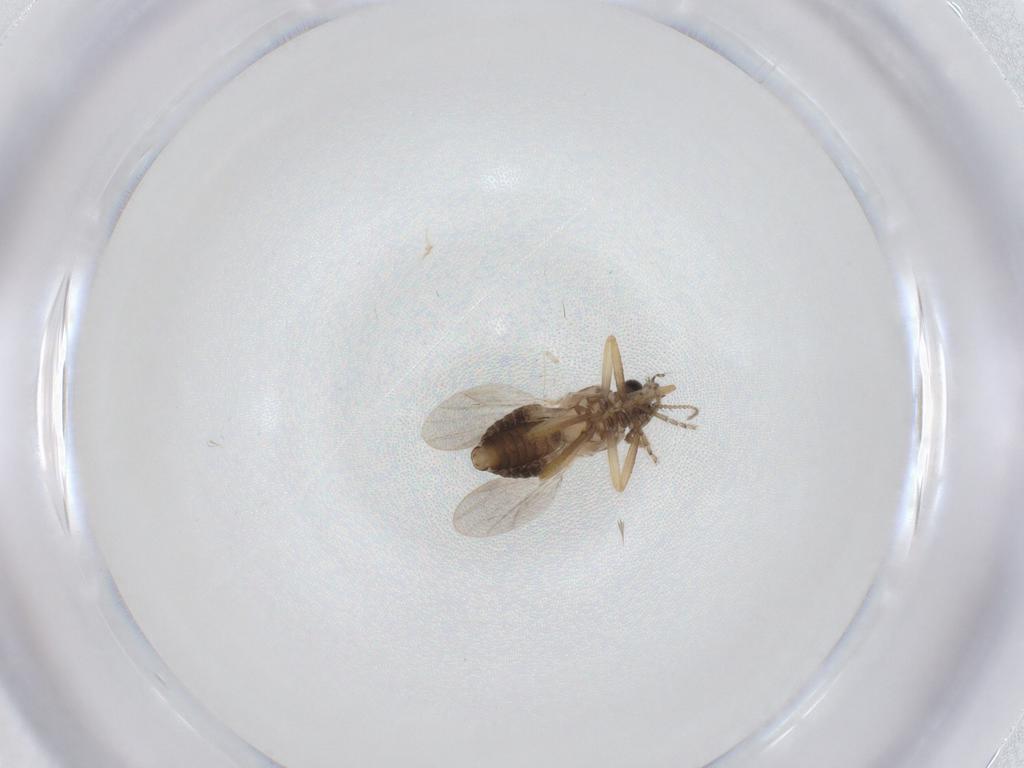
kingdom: Animalia
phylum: Arthropoda
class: Insecta
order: Diptera
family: Ceratopogonidae
